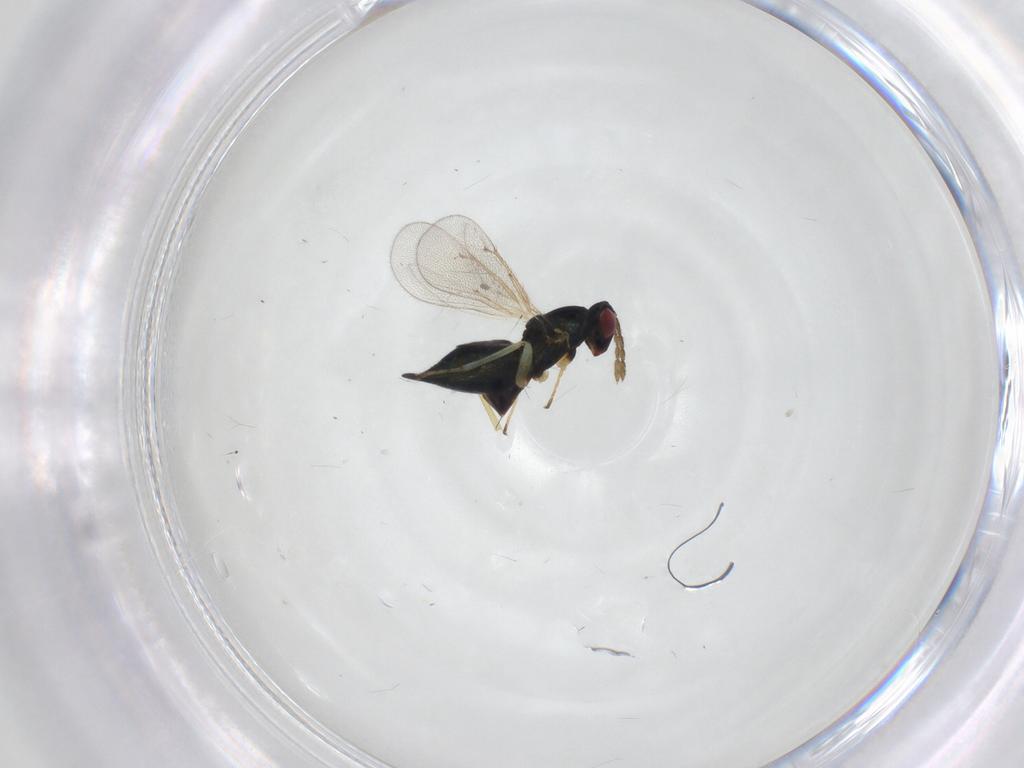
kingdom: Animalia
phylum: Arthropoda
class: Insecta
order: Hymenoptera
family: Eulophidae
